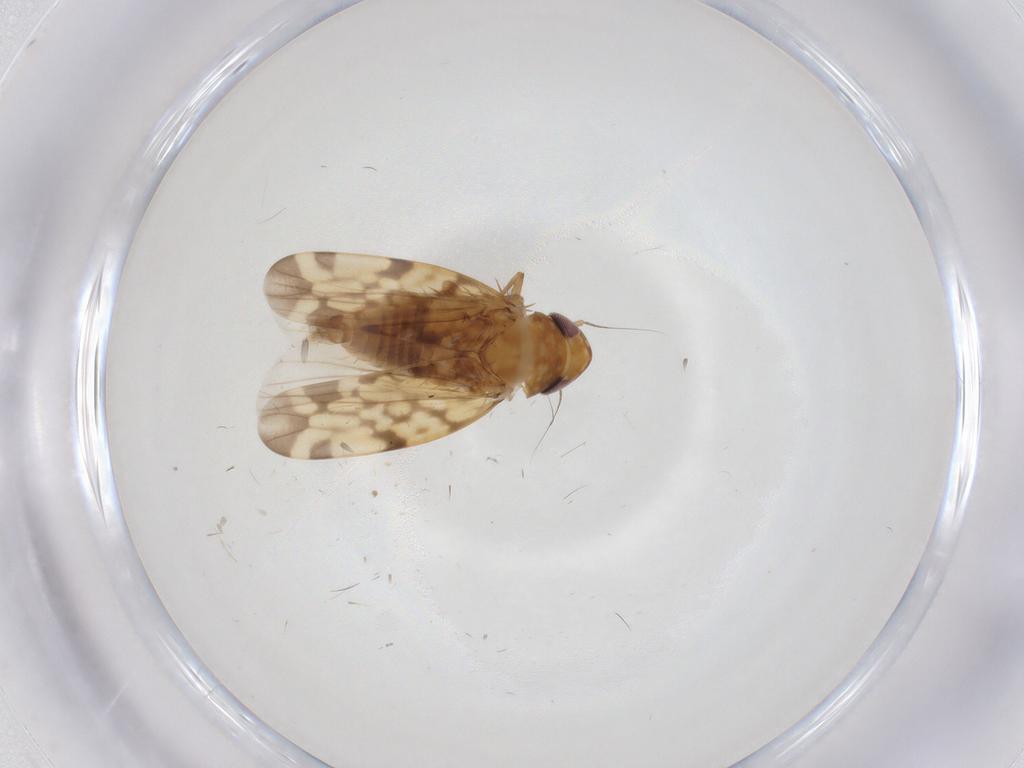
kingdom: Animalia
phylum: Arthropoda
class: Insecta
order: Hemiptera
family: Cicadellidae
